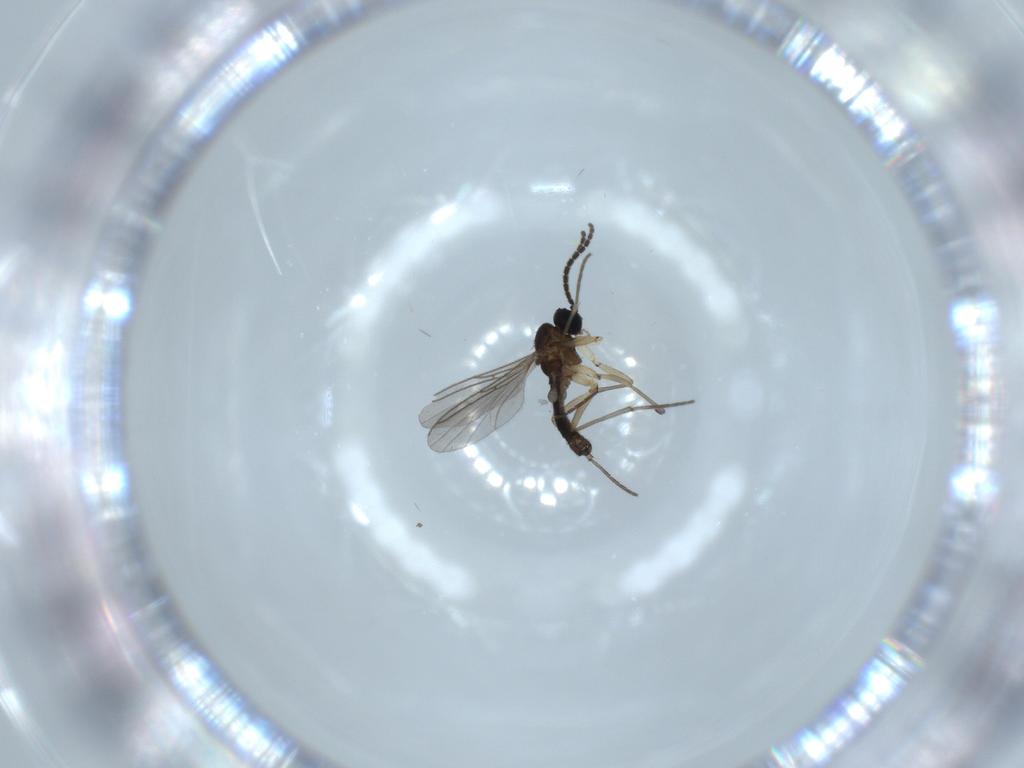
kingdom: Animalia
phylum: Arthropoda
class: Insecta
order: Diptera
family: Sciaridae
